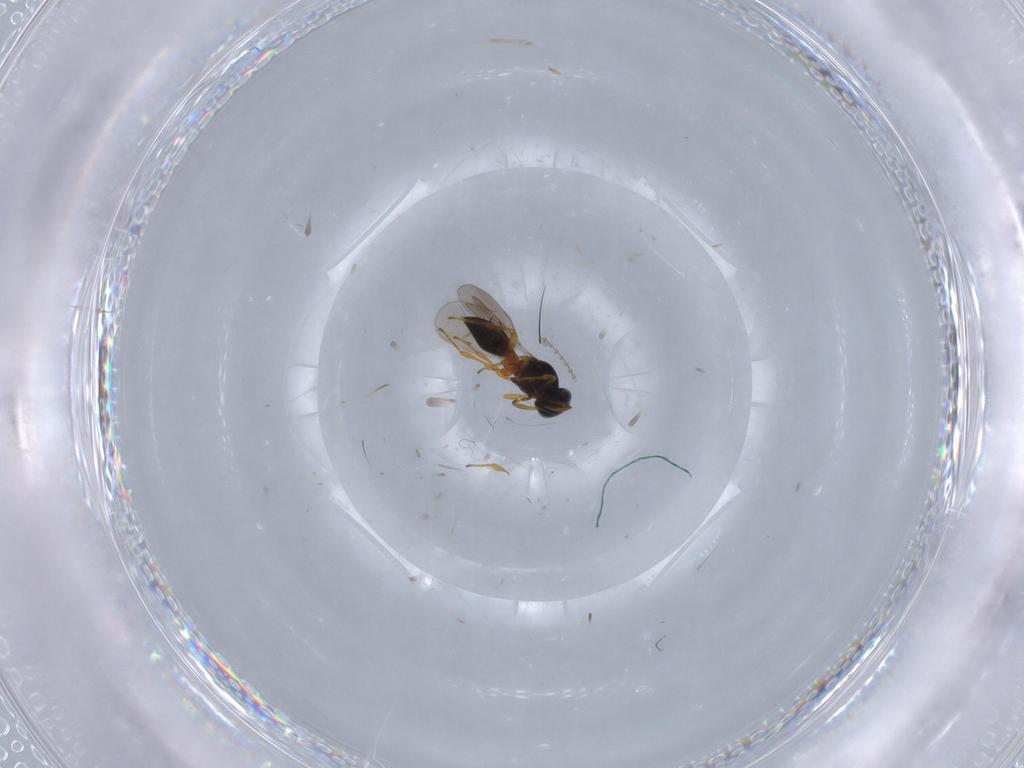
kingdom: Animalia
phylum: Arthropoda
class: Insecta
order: Hymenoptera
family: Platygastridae
